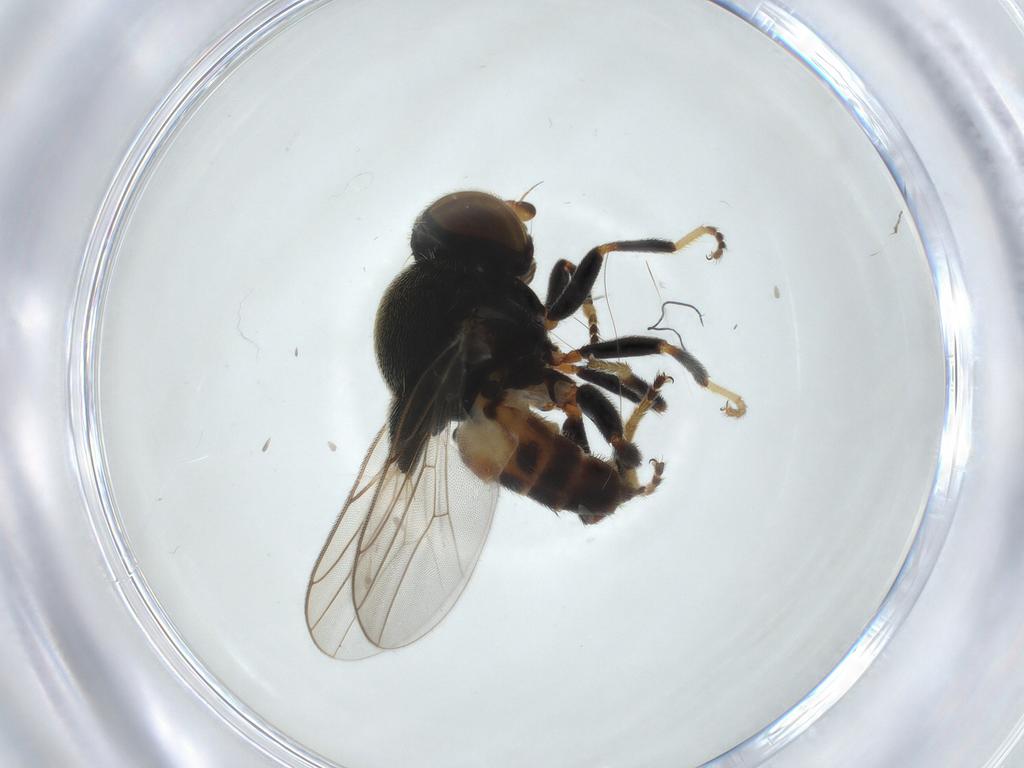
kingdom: Animalia
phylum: Arthropoda
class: Insecta
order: Diptera
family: Chloropidae
